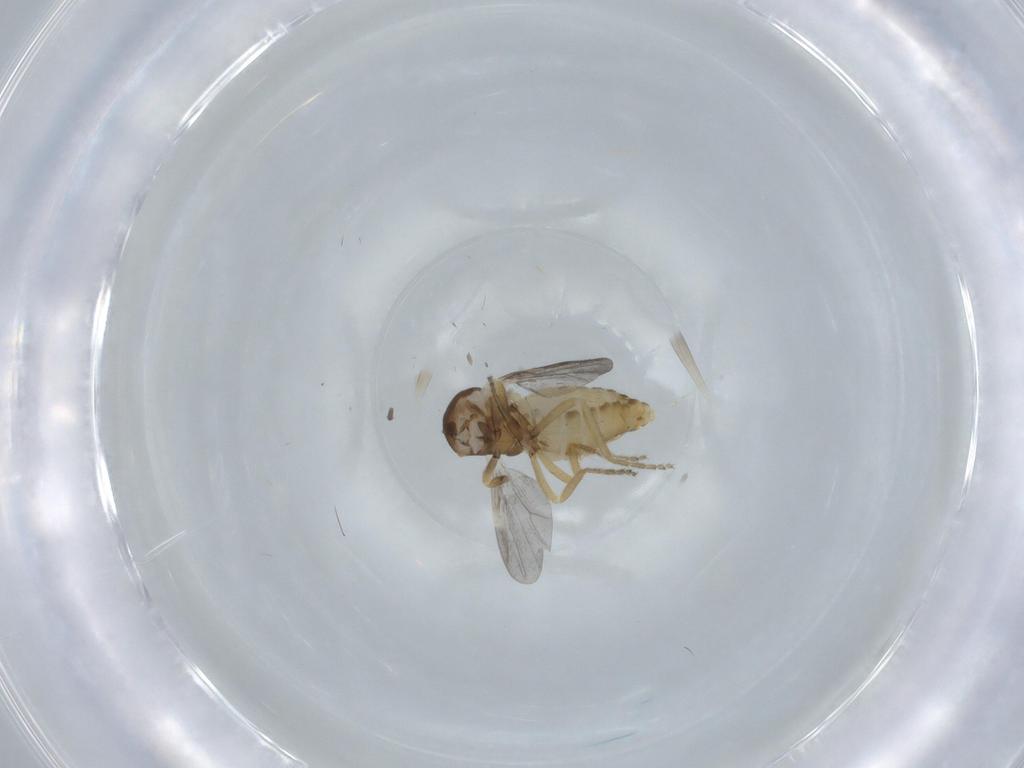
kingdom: Animalia
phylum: Arthropoda
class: Insecta
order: Diptera
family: Ceratopogonidae
